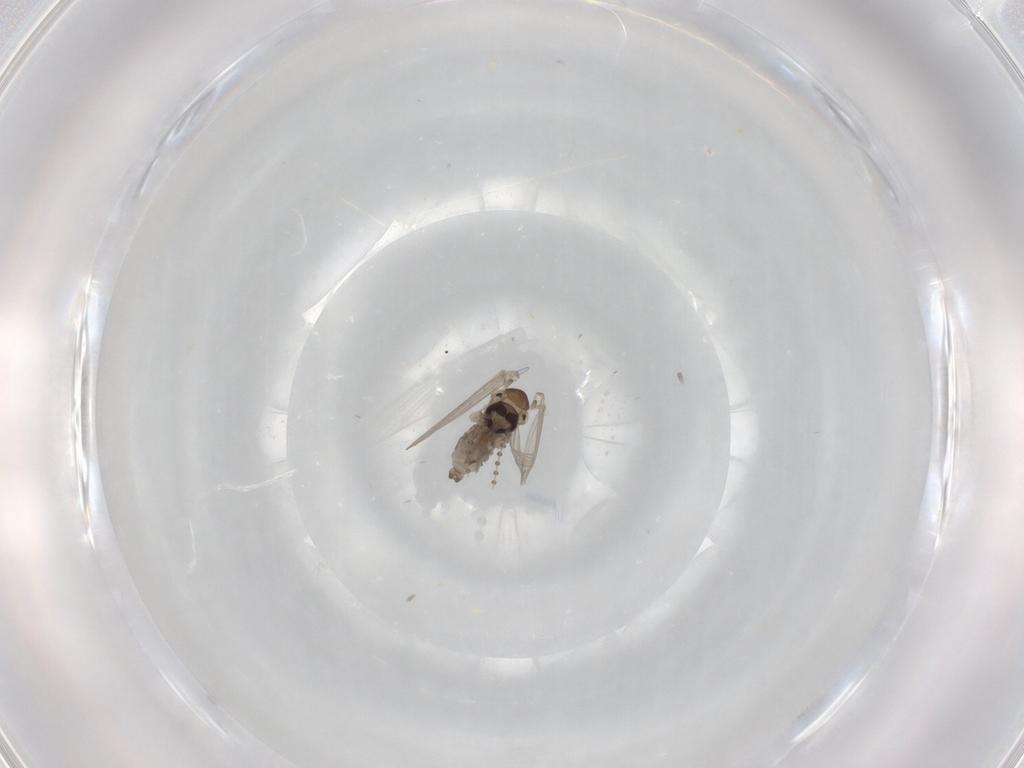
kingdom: Animalia
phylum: Arthropoda
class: Insecta
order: Diptera
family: Psychodidae
